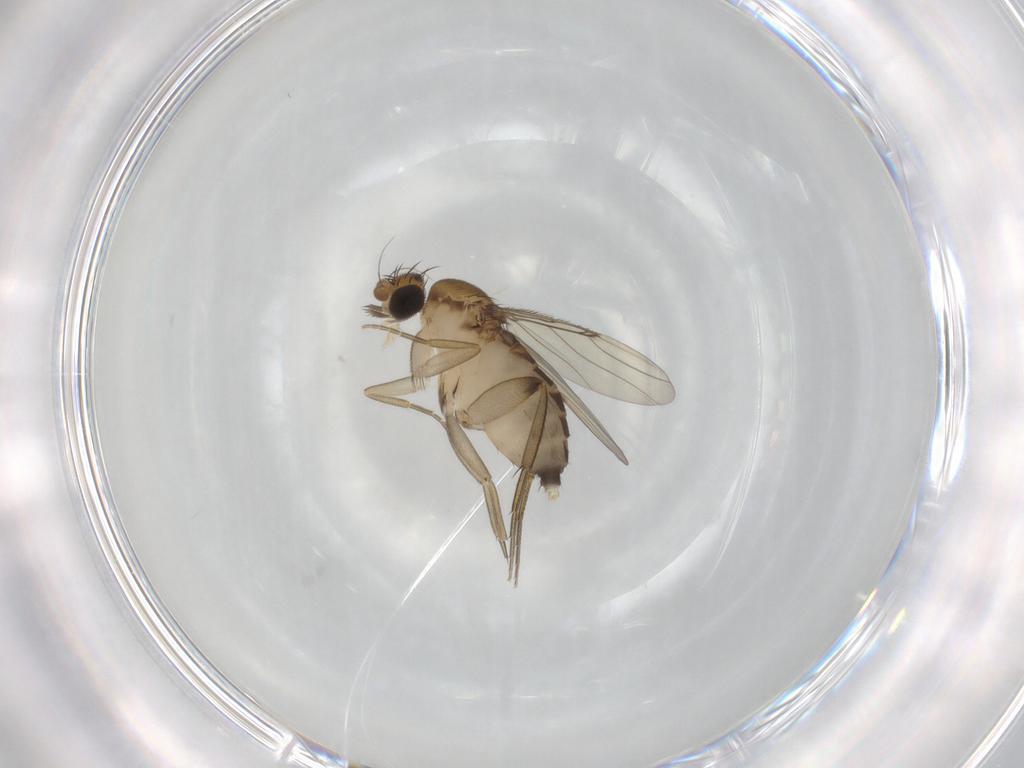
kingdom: Animalia
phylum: Arthropoda
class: Insecta
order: Diptera
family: Phoridae
